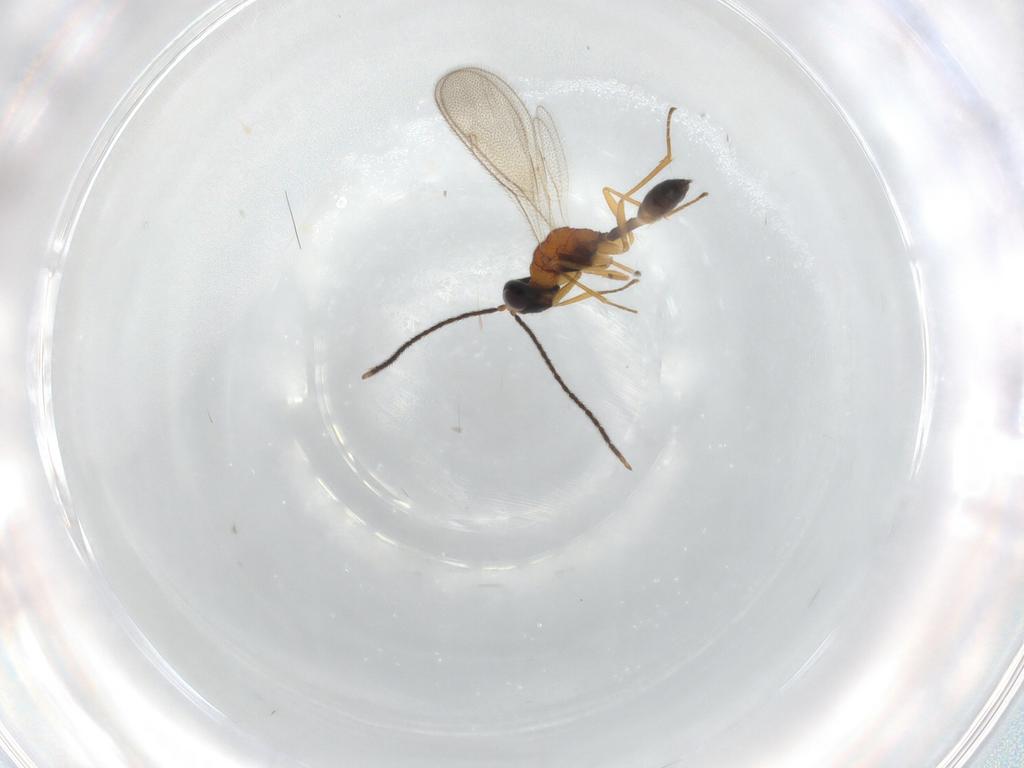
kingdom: Animalia
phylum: Arthropoda
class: Insecta
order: Hymenoptera
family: Pteromalidae
